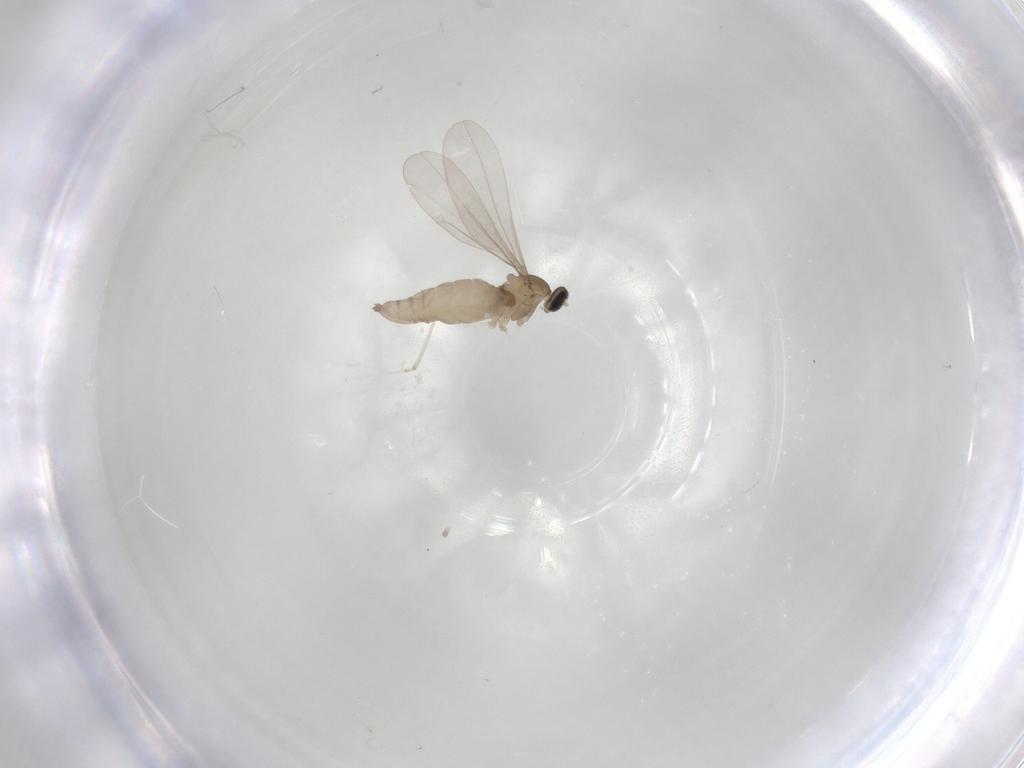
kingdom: Animalia
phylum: Arthropoda
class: Insecta
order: Diptera
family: Cecidomyiidae
